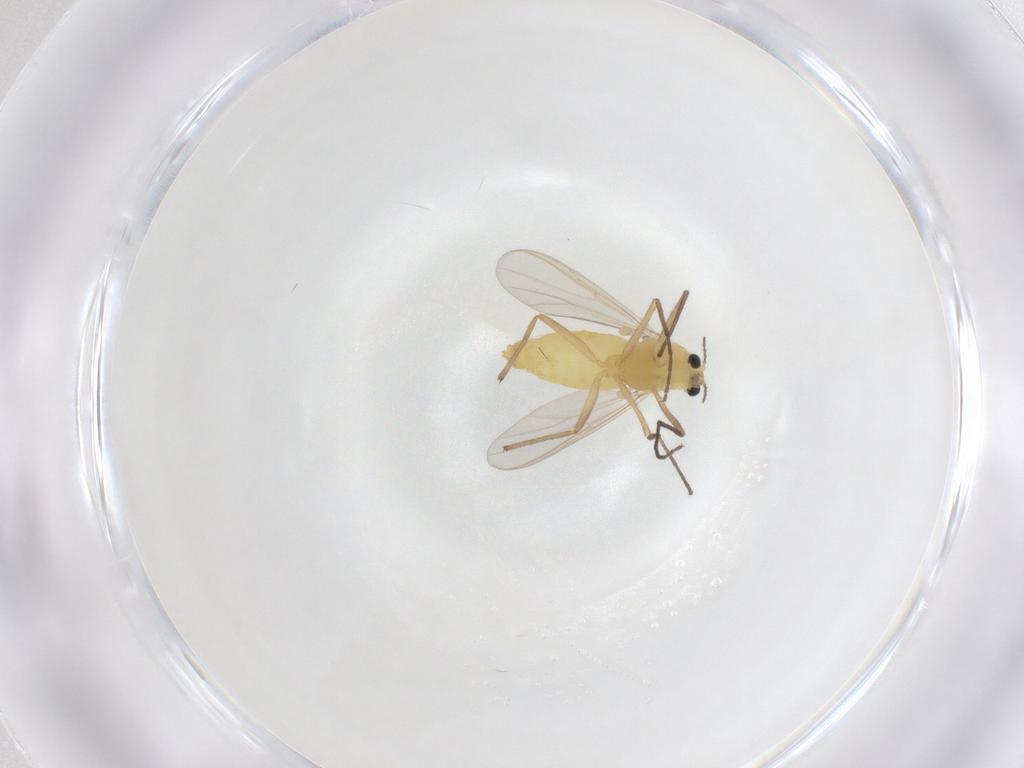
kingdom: Animalia
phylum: Arthropoda
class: Insecta
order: Diptera
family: Chironomidae
